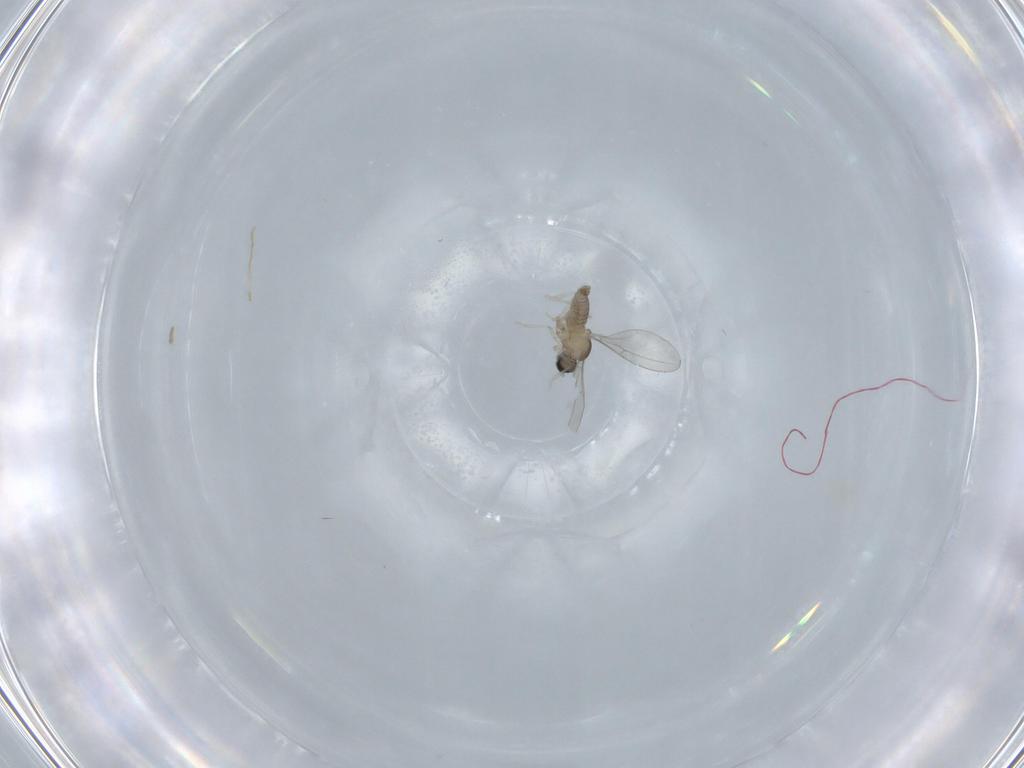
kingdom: Animalia
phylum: Arthropoda
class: Insecta
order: Diptera
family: Cecidomyiidae
